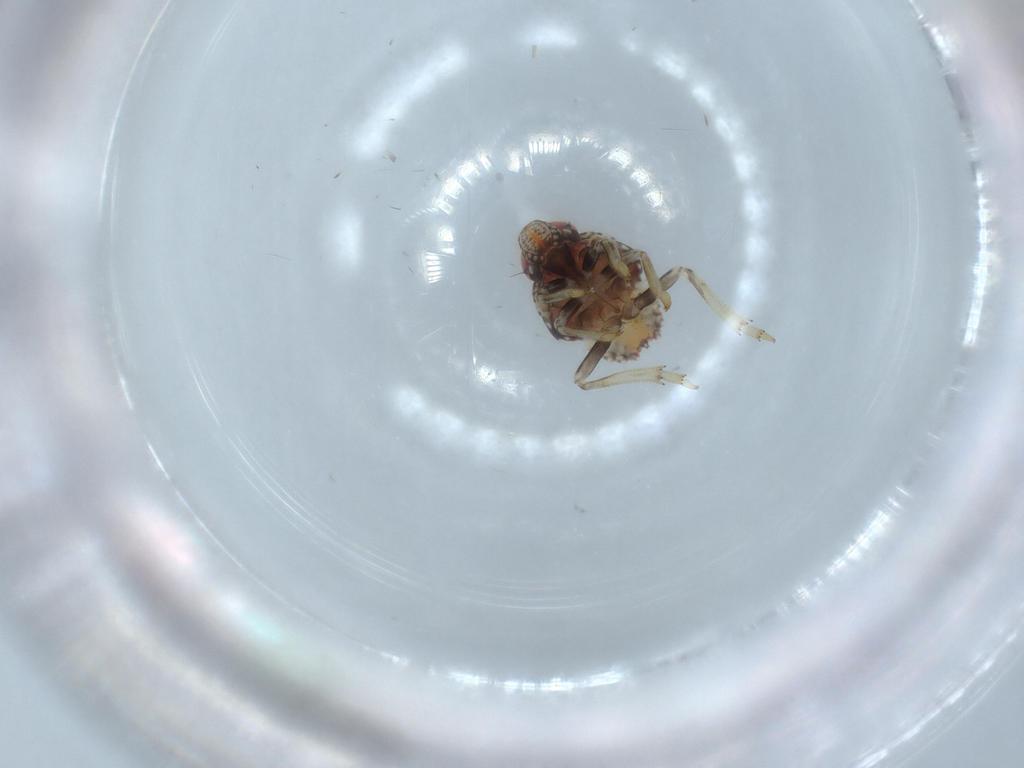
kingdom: Animalia
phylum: Arthropoda
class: Insecta
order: Hemiptera
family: Issidae
